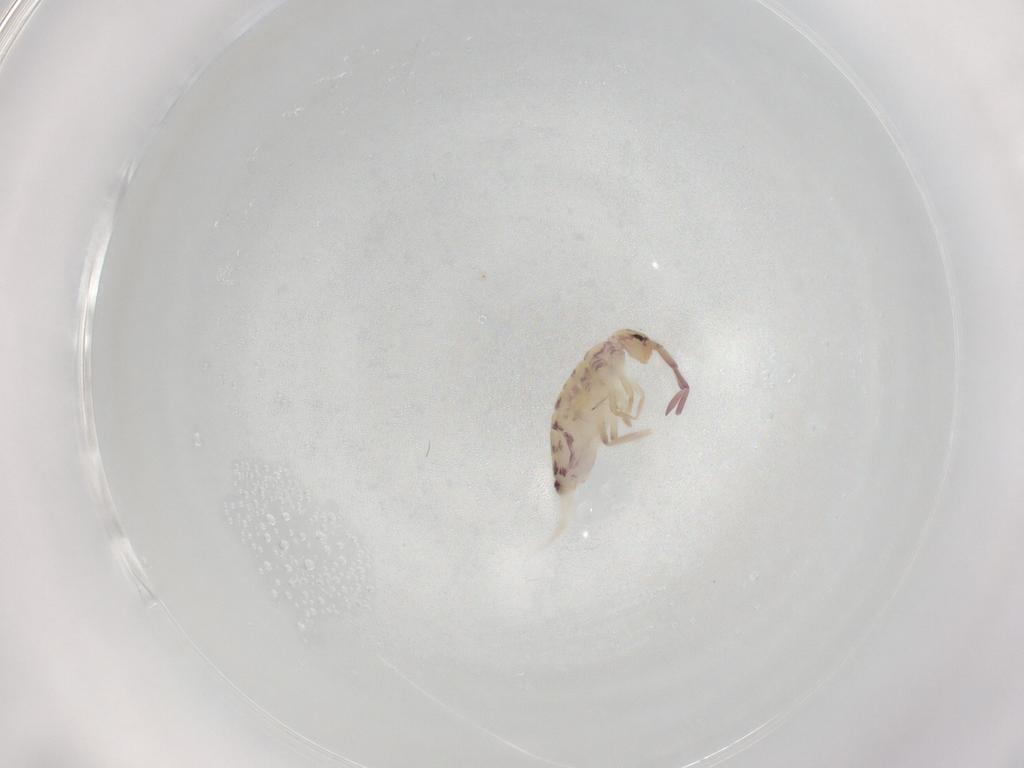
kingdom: Animalia
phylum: Arthropoda
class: Collembola
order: Entomobryomorpha
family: Entomobryidae
